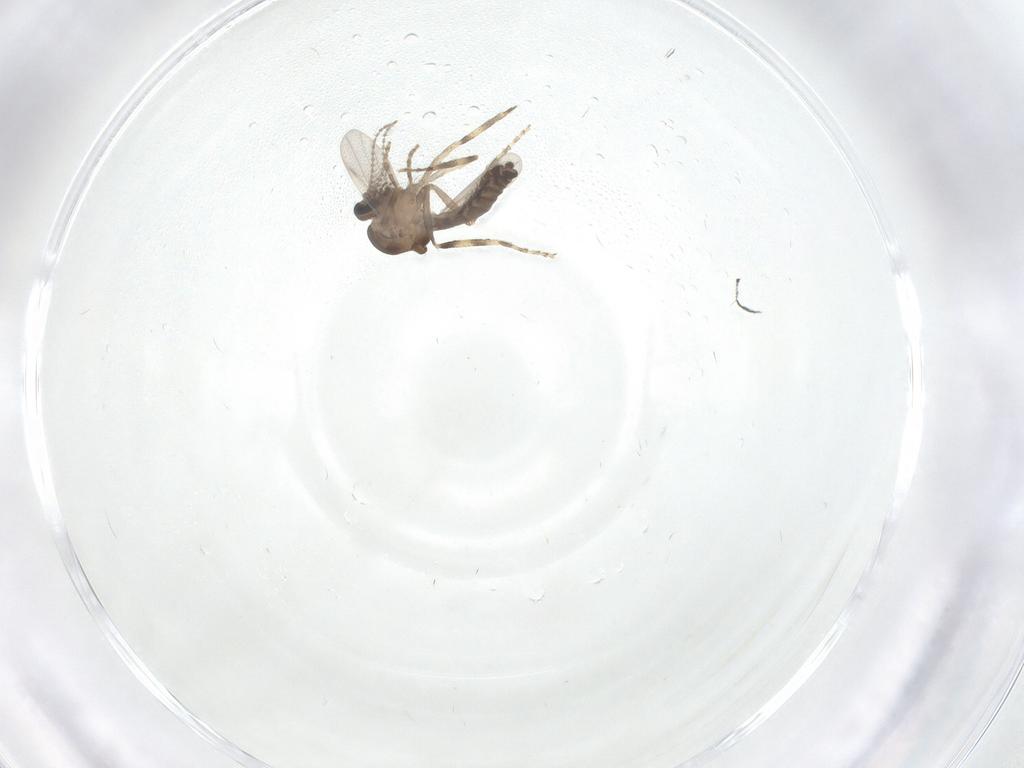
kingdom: Animalia
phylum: Arthropoda
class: Insecta
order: Diptera
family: Ceratopogonidae
